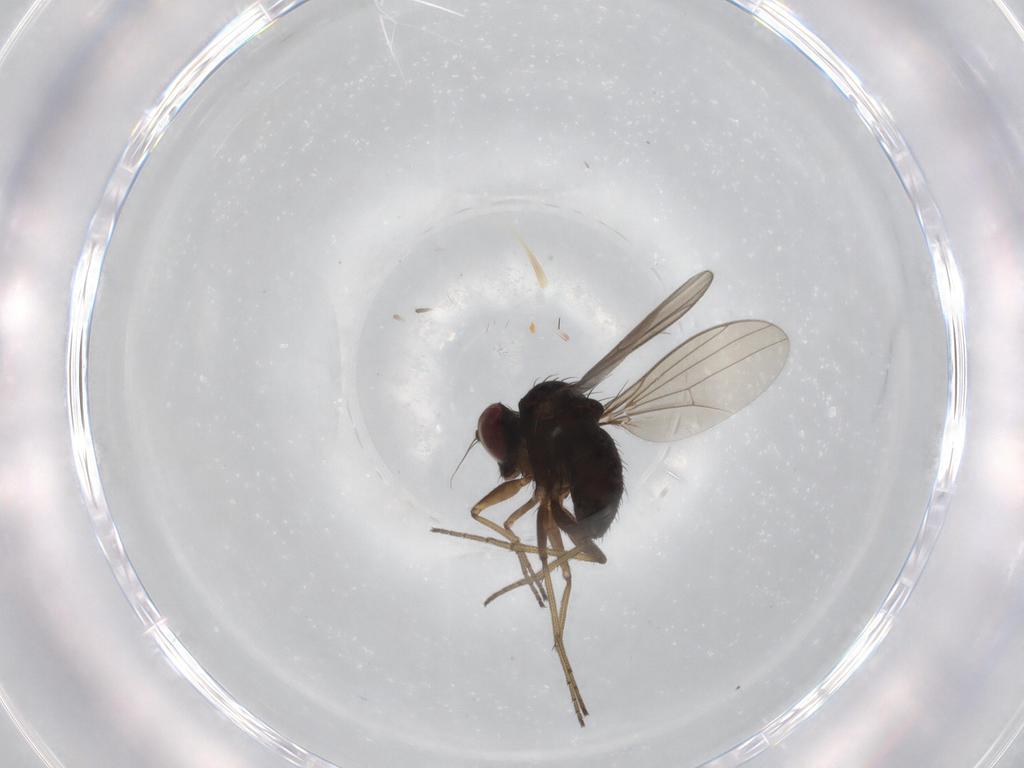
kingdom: Animalia
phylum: Arthropoda
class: Insecta
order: Diptera
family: Dolichopodidae
